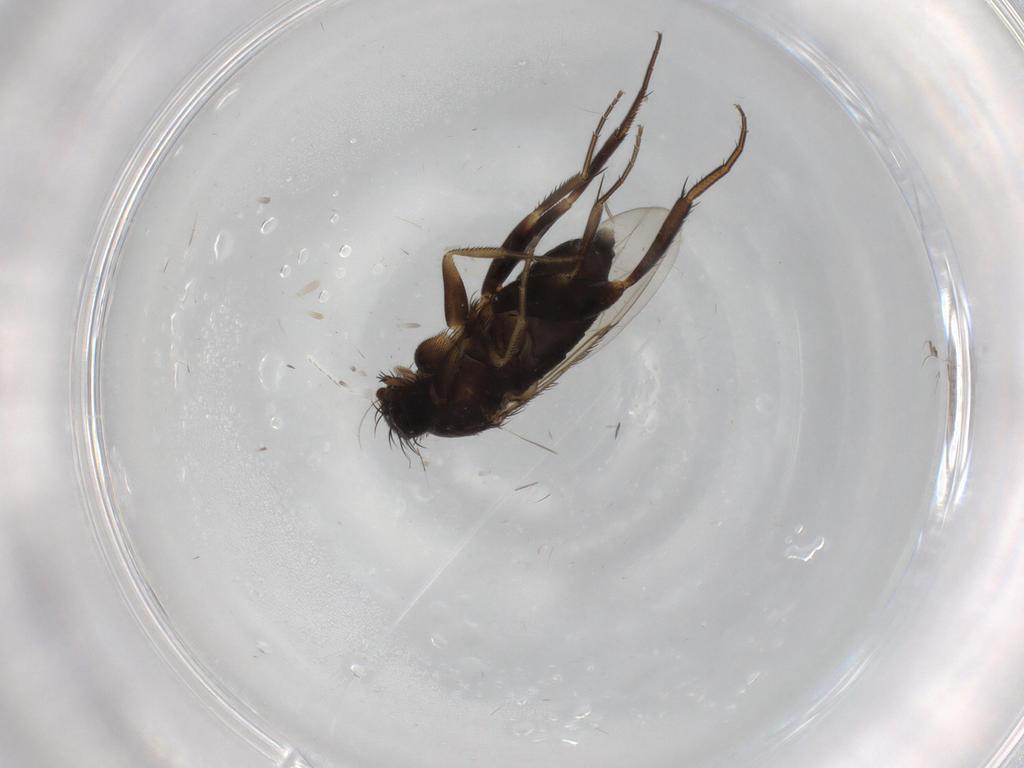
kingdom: Animalia
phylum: Arthropoda
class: Insecta
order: Diptera
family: Phoridae
